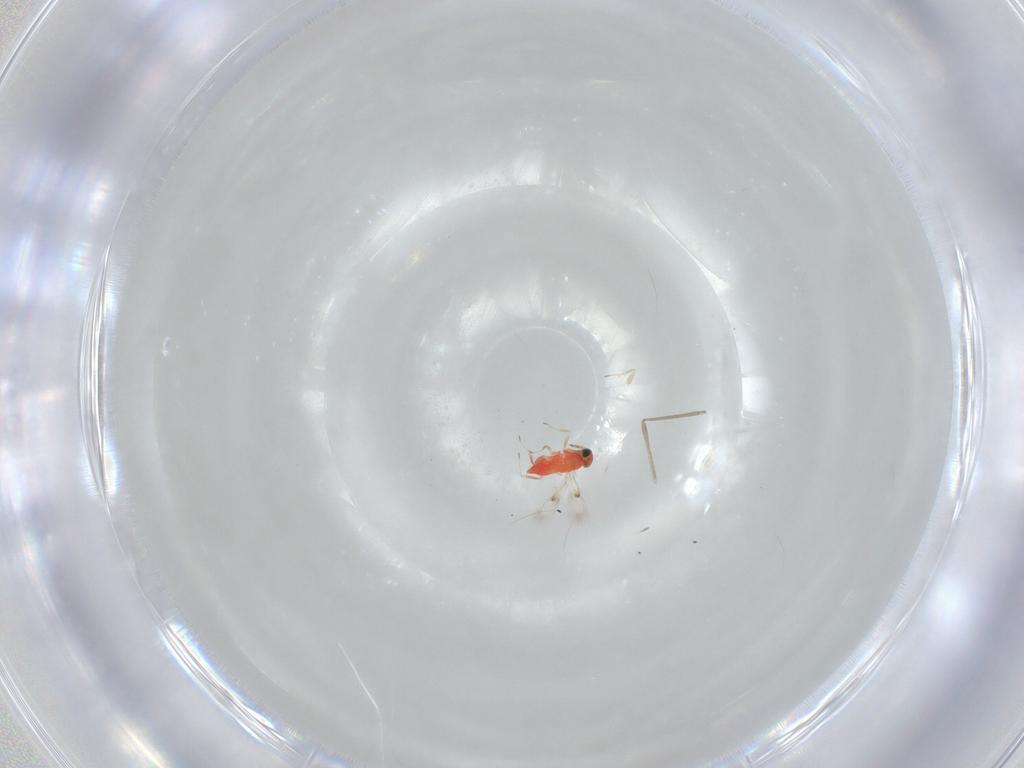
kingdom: Animalia
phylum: Arthropoda
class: Insecta
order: Hymenoptera
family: Trichogrammatidae
